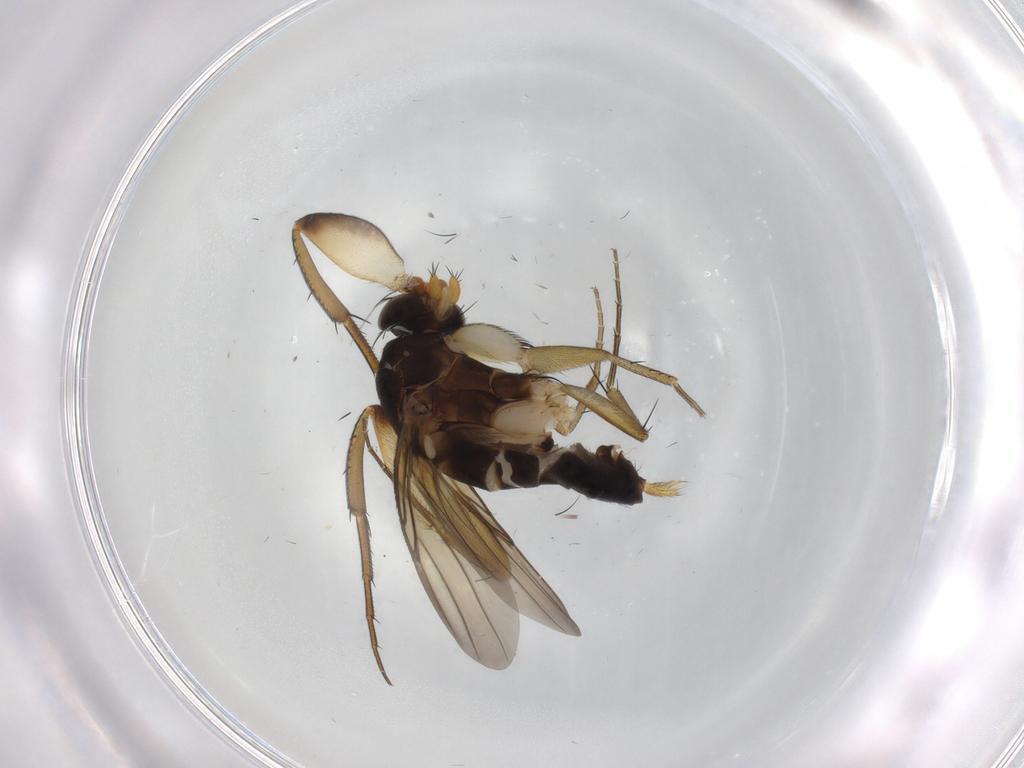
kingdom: Animalia
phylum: Arthropoda
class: Insecta
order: Diptera
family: Phoridae
